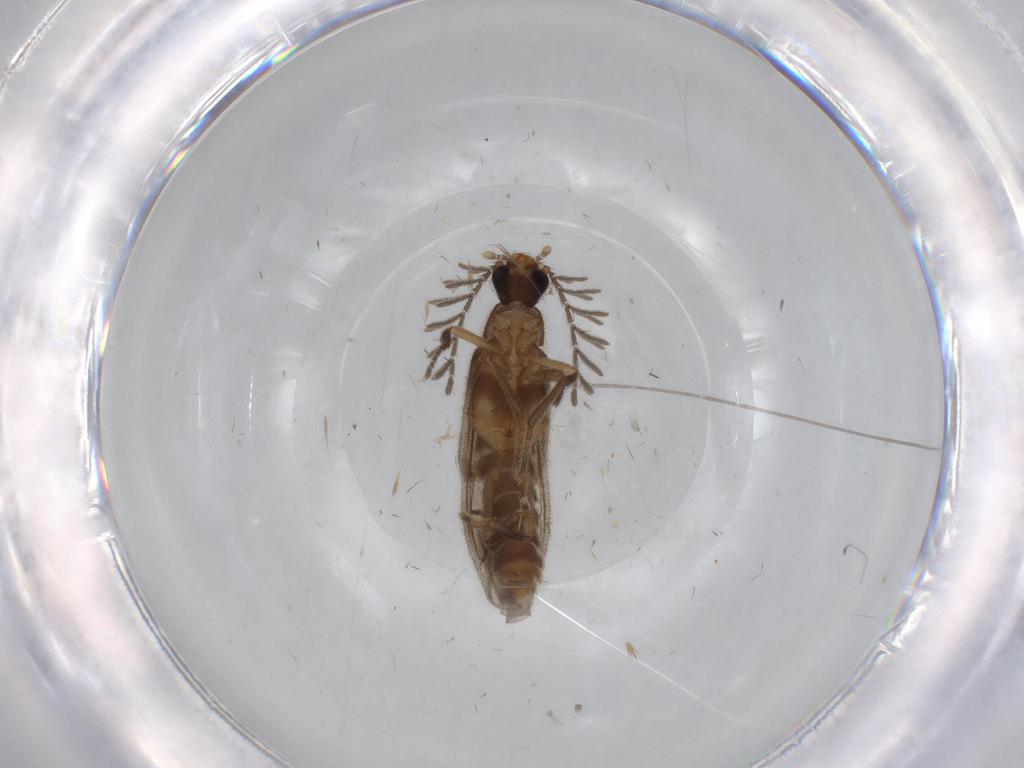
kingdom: Animalia
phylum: Arthropoda
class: Insecta
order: Coleoptera
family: Staphylinidae
